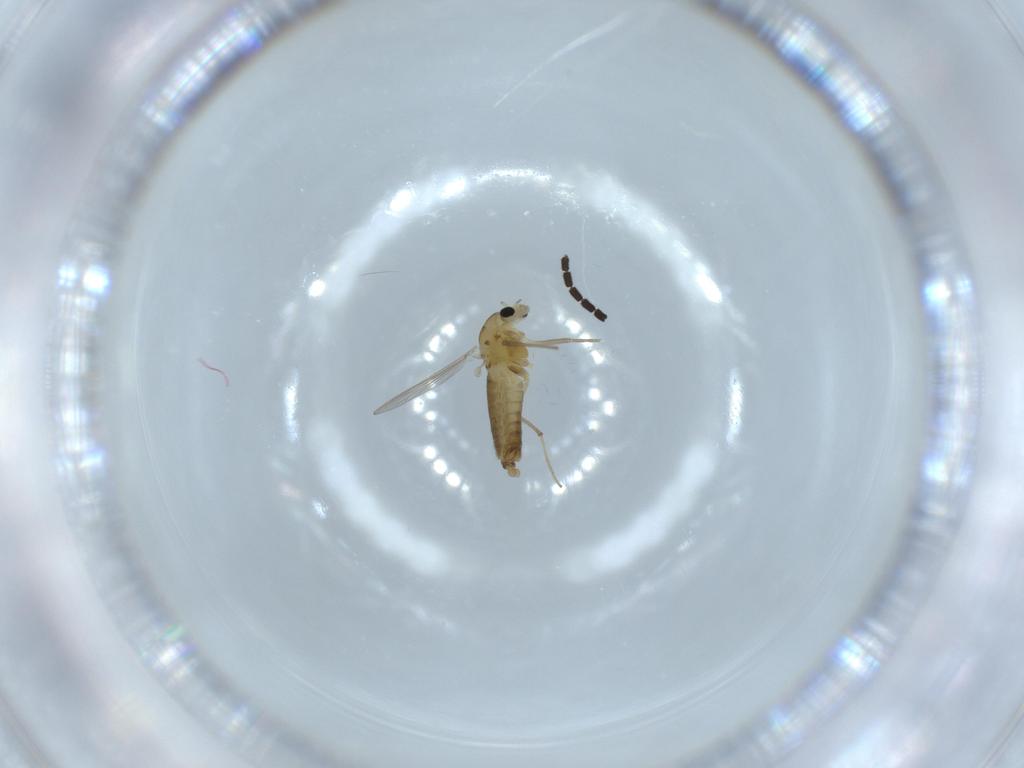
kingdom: Animalia
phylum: Arthropoda
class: Insecta
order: Diptera
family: Chironomidae
